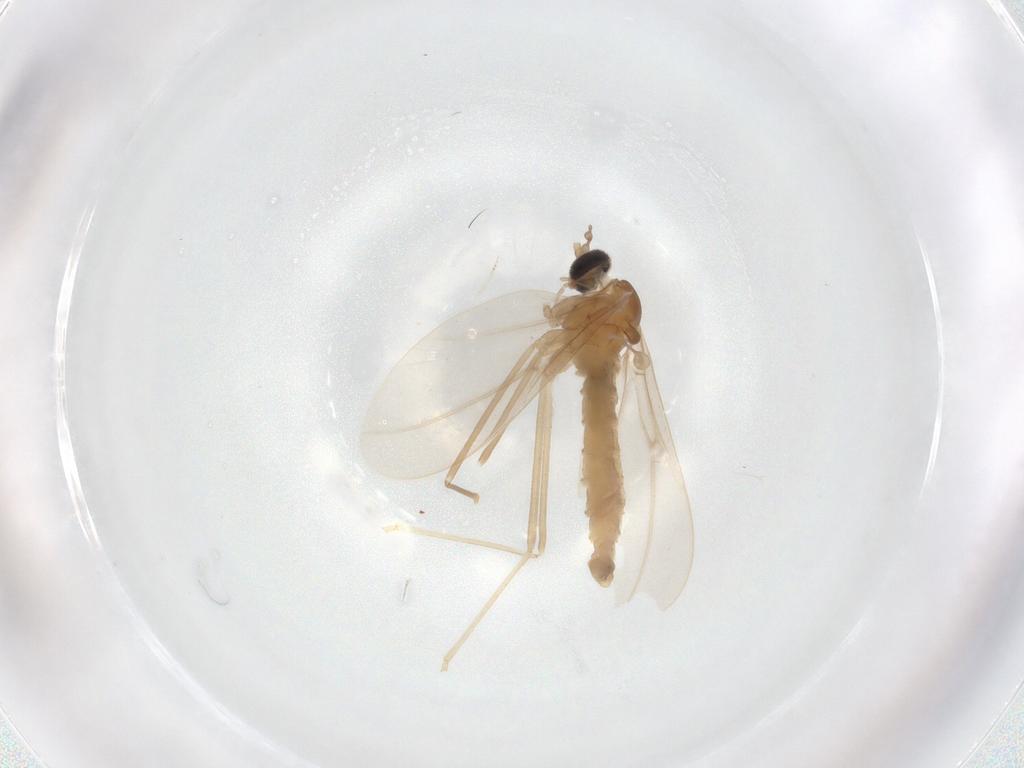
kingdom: Animalia
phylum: Arthropoda
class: Insecta
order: Diptera
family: Cecidomyiidae
